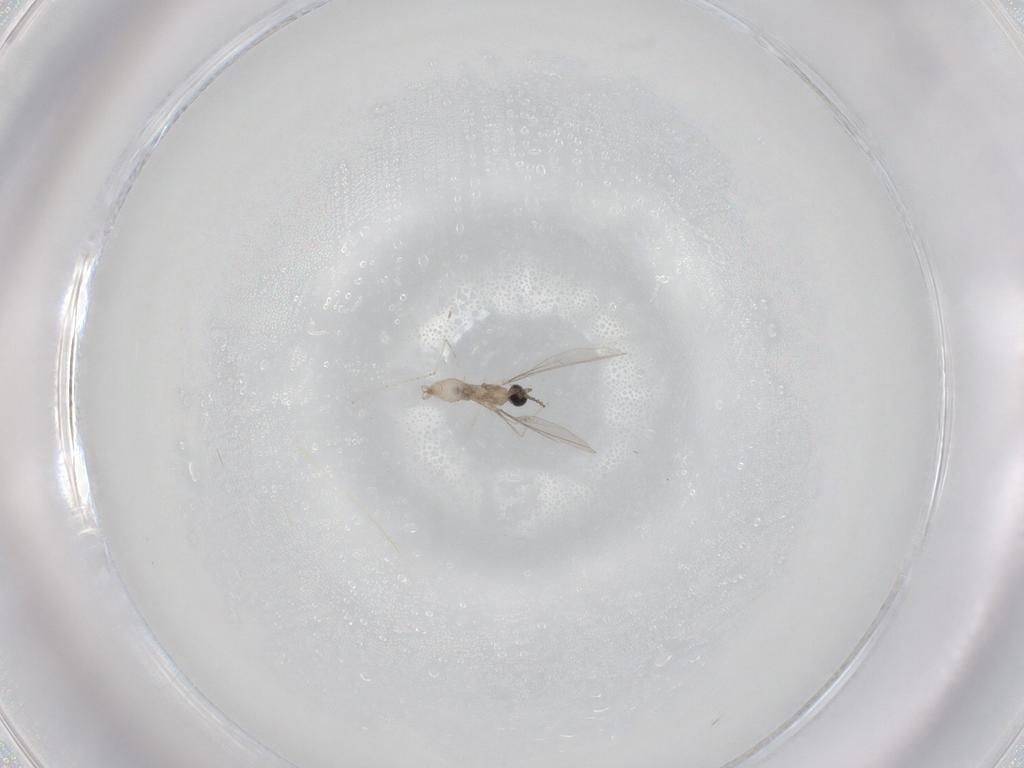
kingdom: Animalia
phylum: Arthropoda
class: Insecta
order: Diptera
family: Cecidomyiidae
